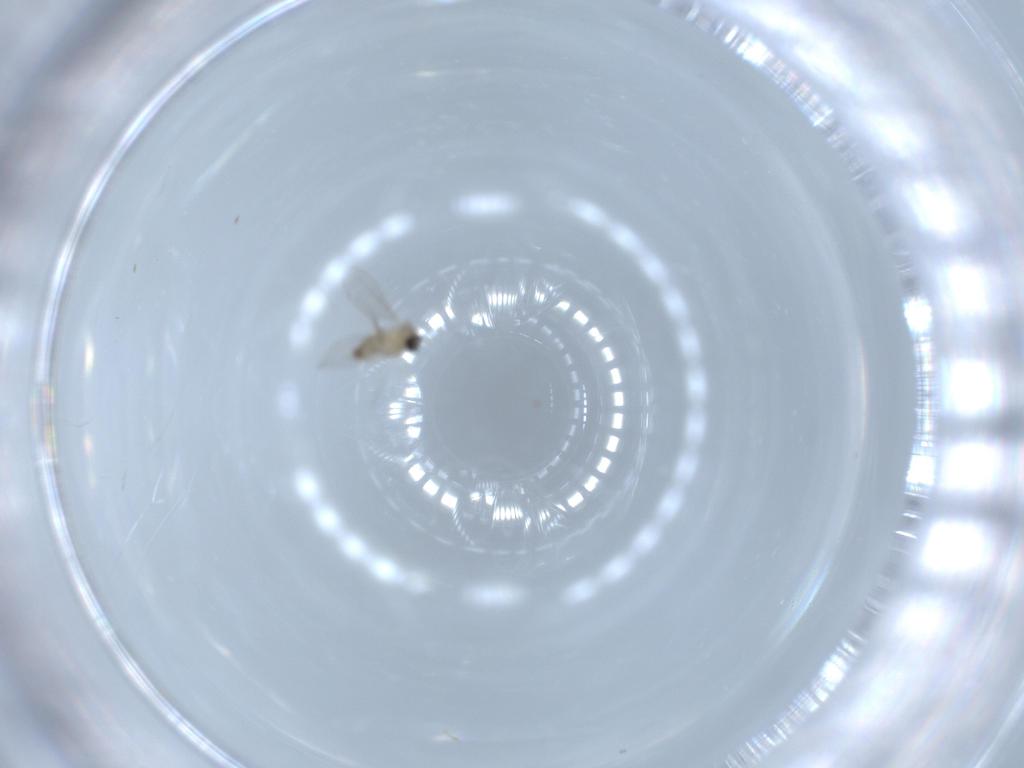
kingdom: Animalia
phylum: Arthropoda
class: Insecta
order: Diptera
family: Cecidomyiidae
